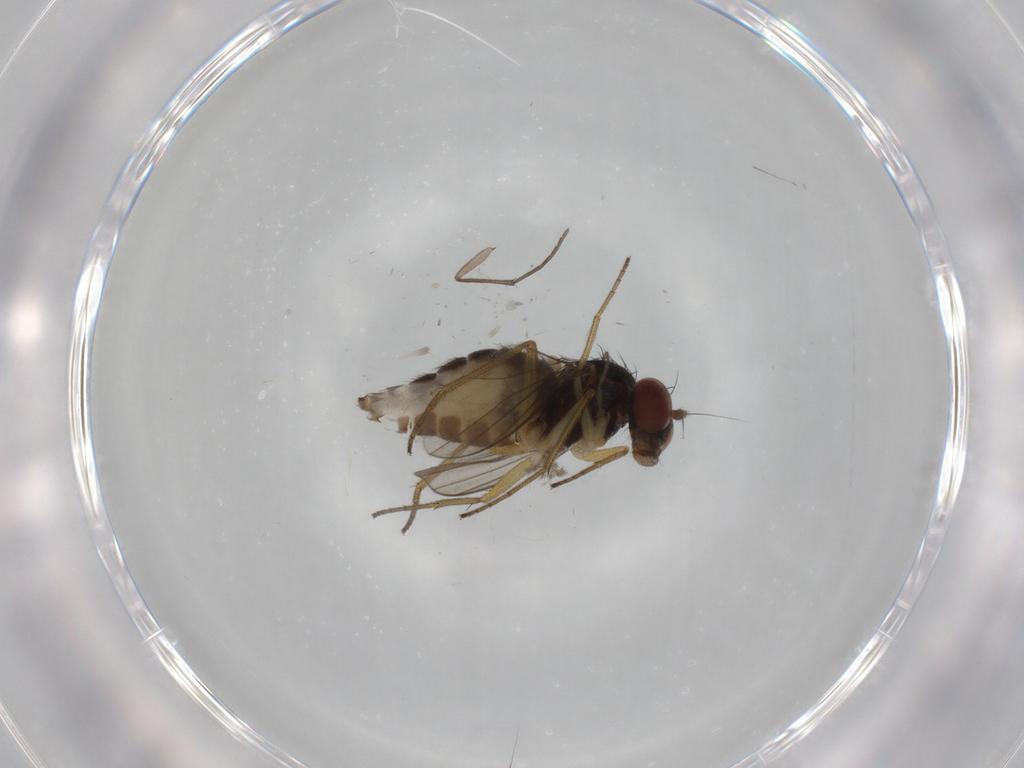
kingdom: Animalia
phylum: Arthropoda
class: Insecta
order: Diptera
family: Dolichopodidae
